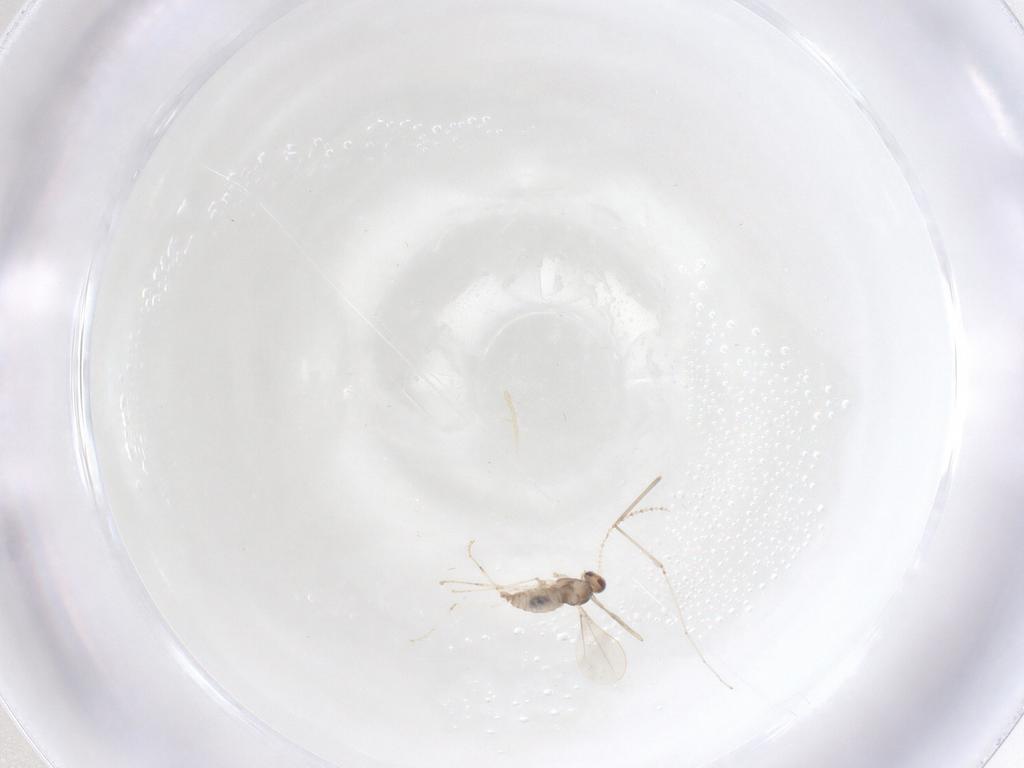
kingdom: Animalia
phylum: Arthropoda
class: Insecta
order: Diptera
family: Cecidomyiidae
